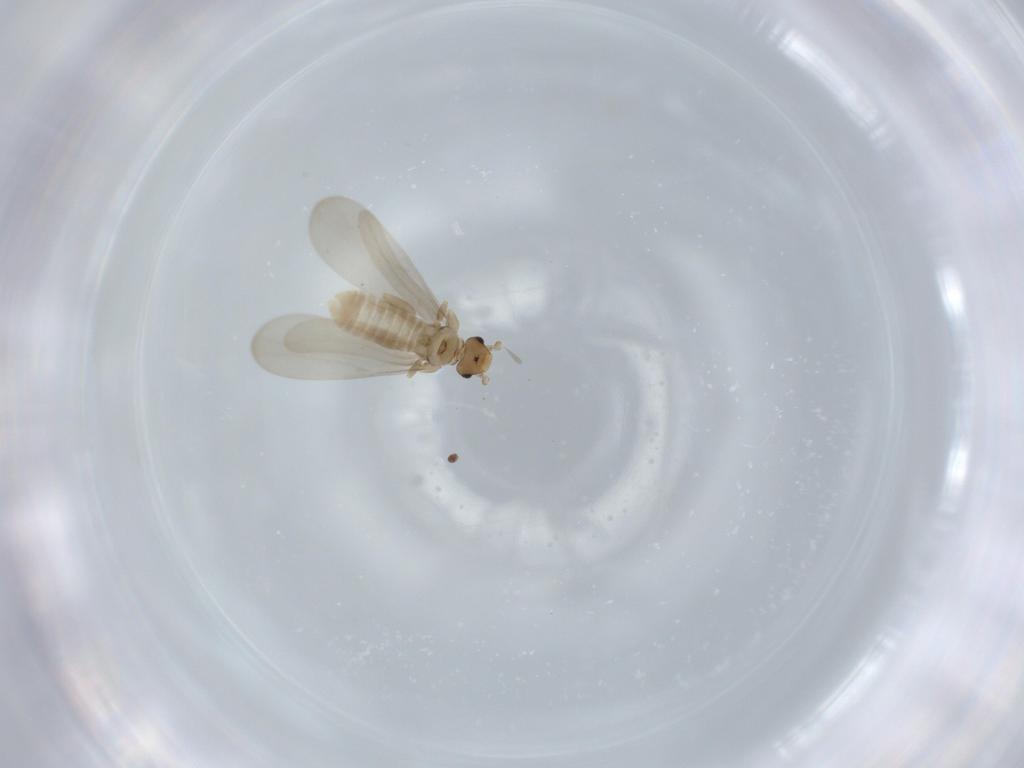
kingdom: Animalia
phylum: Arthropoda
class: Insecta
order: Psocodea
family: Liposcelididae
